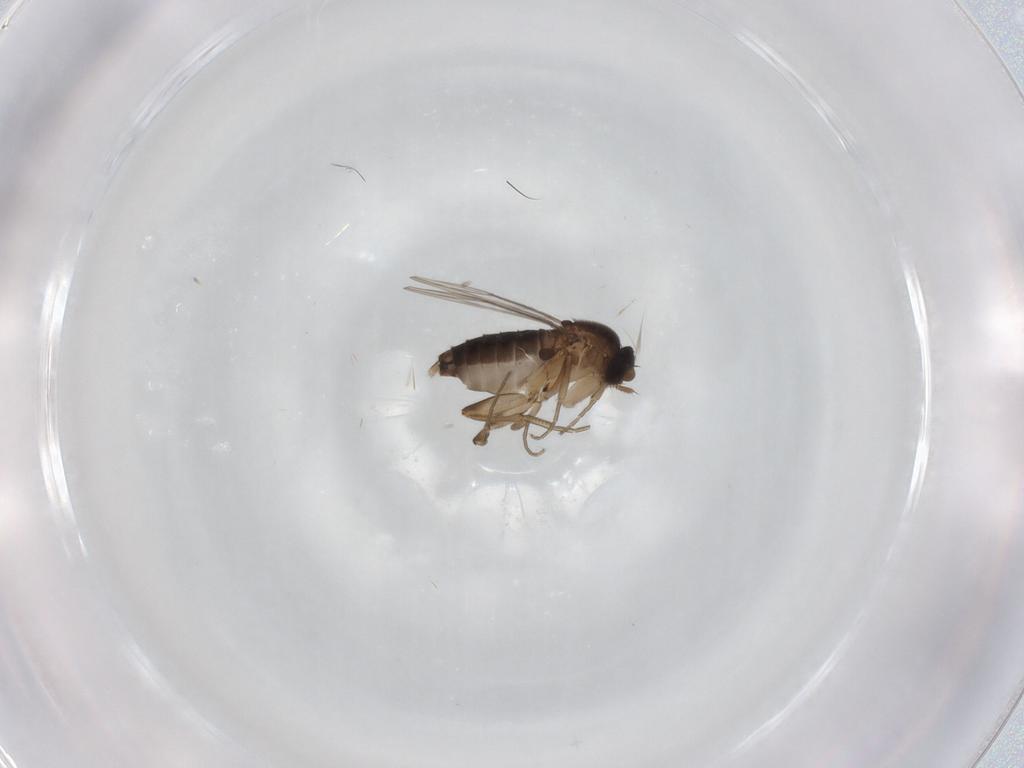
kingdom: Animalia
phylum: Arthropoda
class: Insecta
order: Diptera
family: Phoridae
